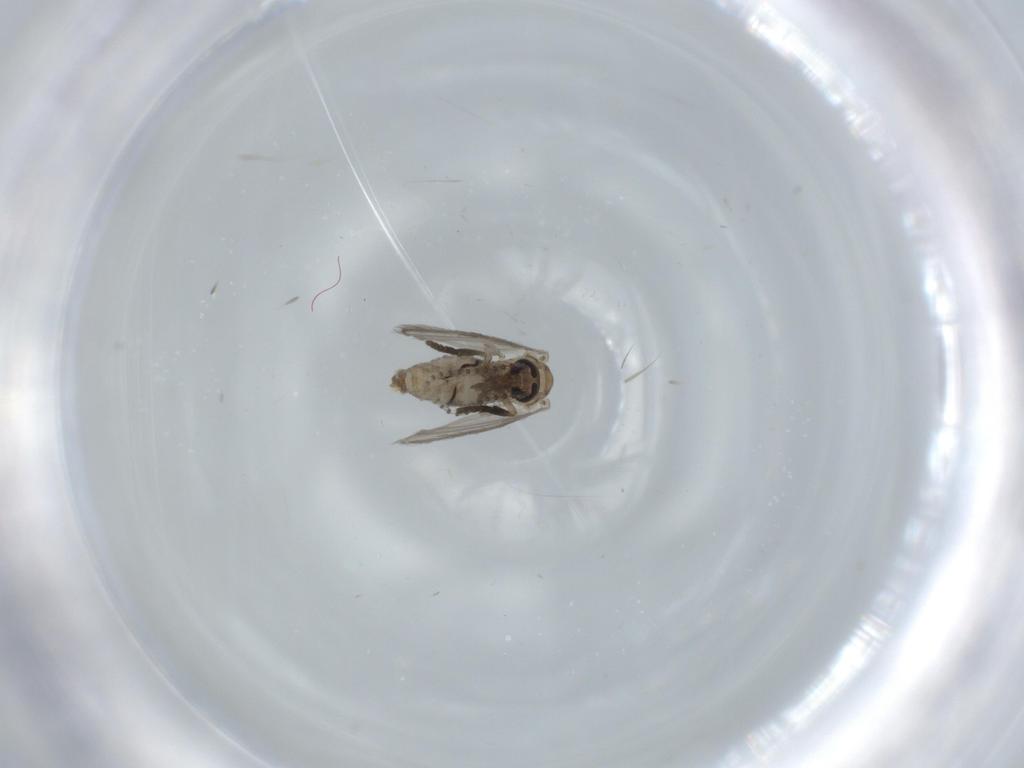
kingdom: Animalia
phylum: Arthropoda
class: Insecta
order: Diptera
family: Psychodidae
